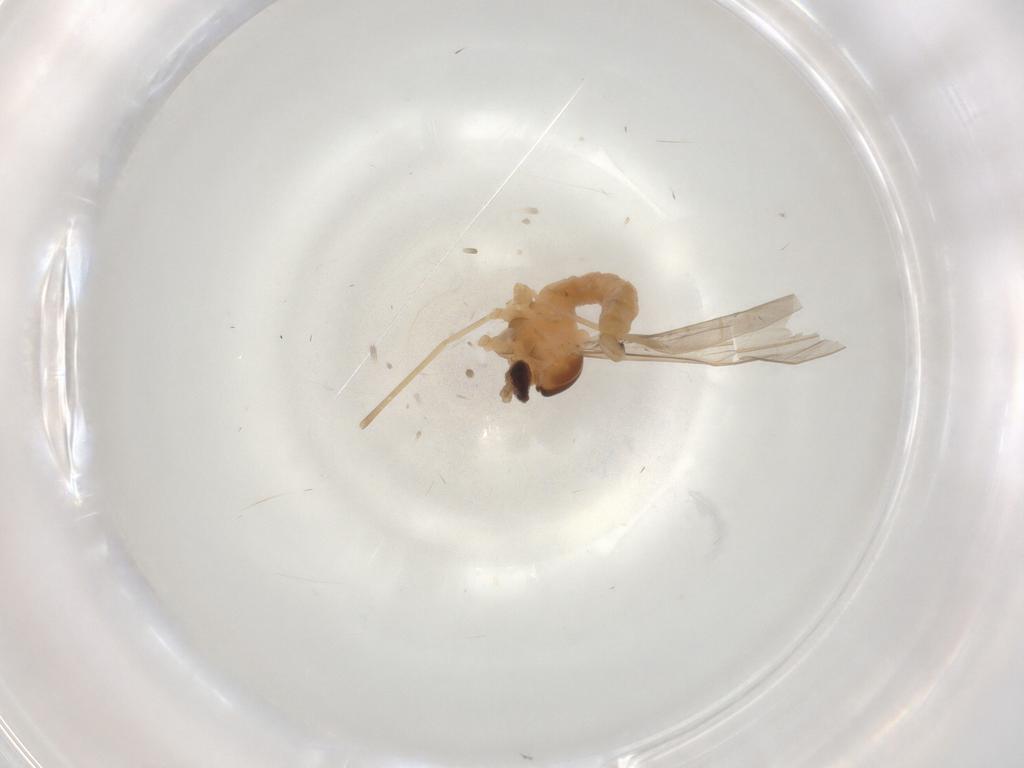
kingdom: Animalia
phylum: Arthropoda
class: Insecta
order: Diptera
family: Cecidomyiidae
